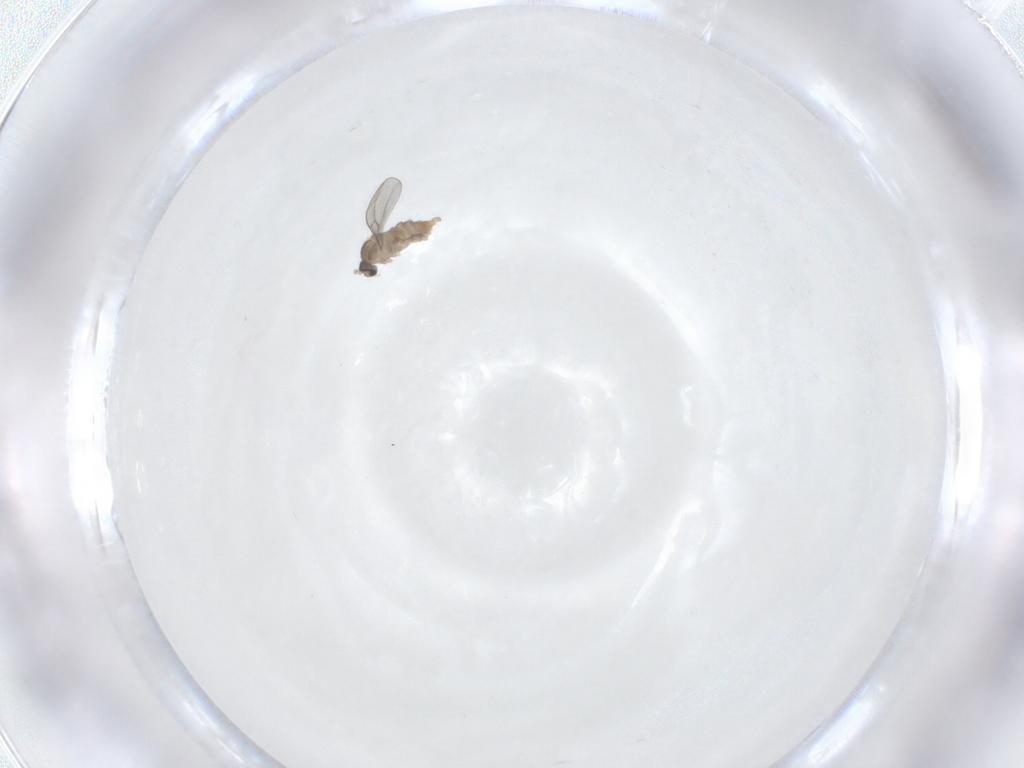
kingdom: Animalia
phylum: Arthropoda
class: Insecta
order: Diptera
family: Cecidomyiidae
